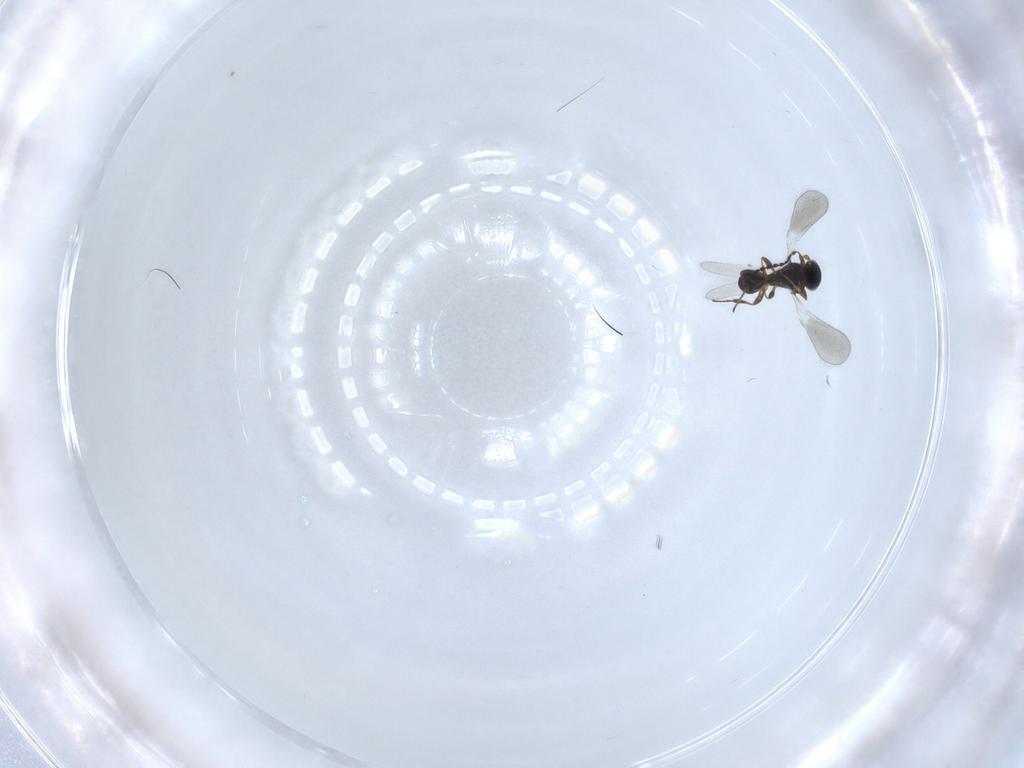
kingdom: Animalia
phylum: Arthropoda
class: Insecta
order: Hymenoptera
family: Platygastridae
